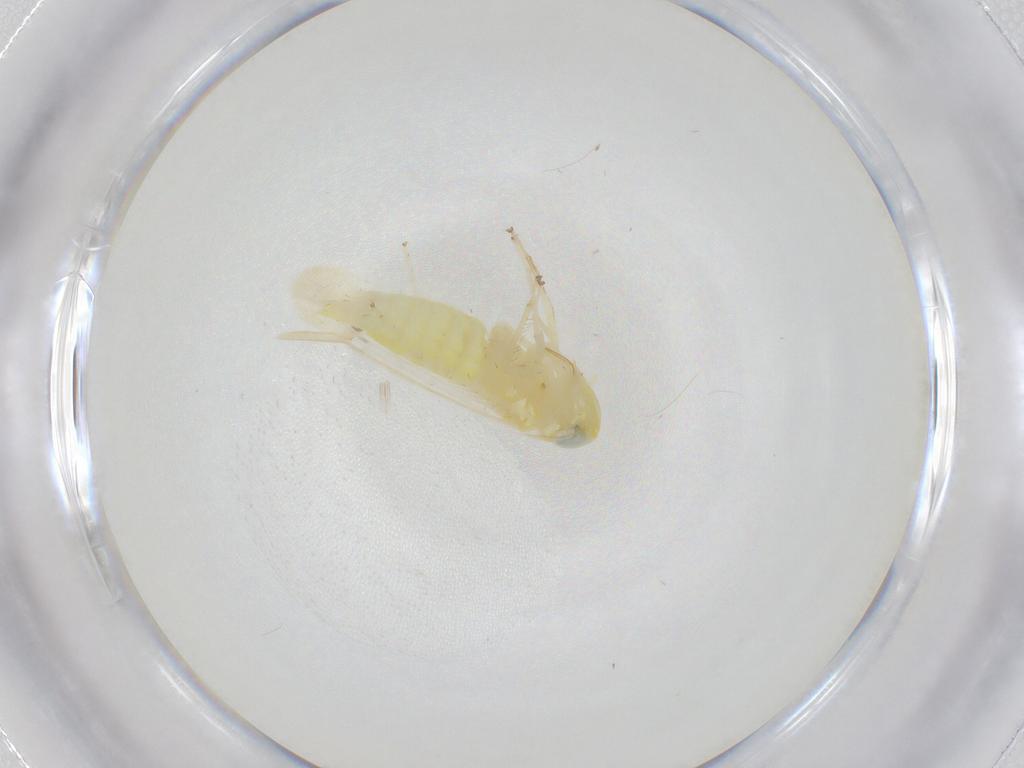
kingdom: Animalia
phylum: Arthropoda
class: Insecta
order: Hemiptera
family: Cicadellidae
